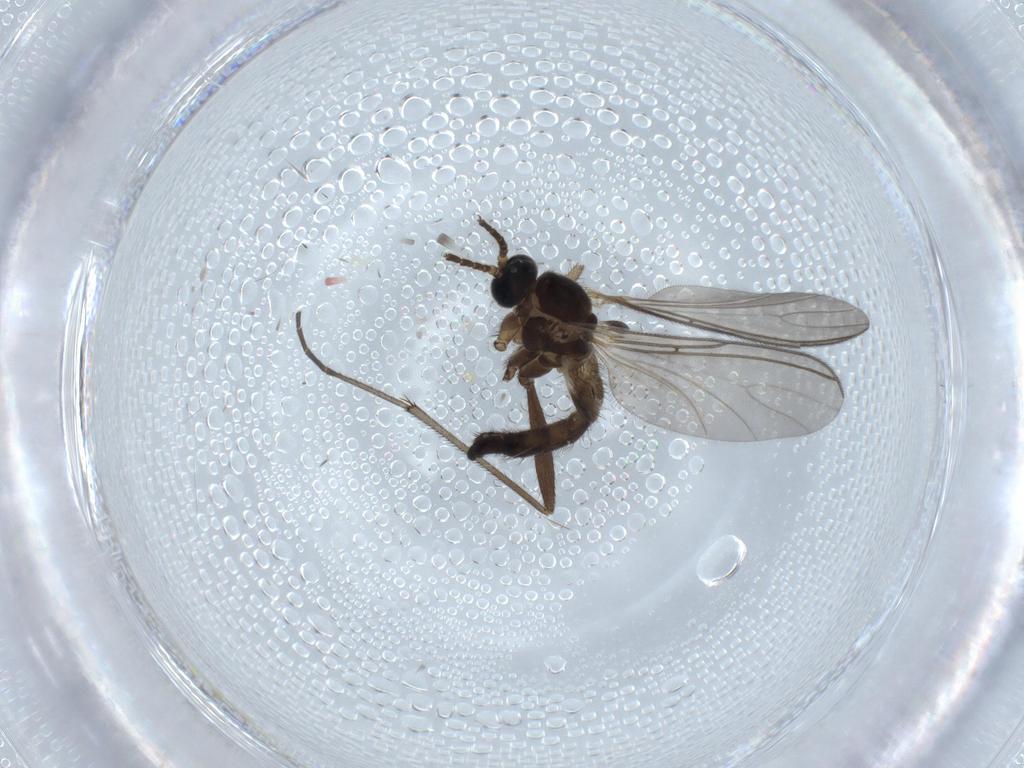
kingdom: Animalia
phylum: Arthropoda
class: Insecta
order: Diptera
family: Sciaridae
